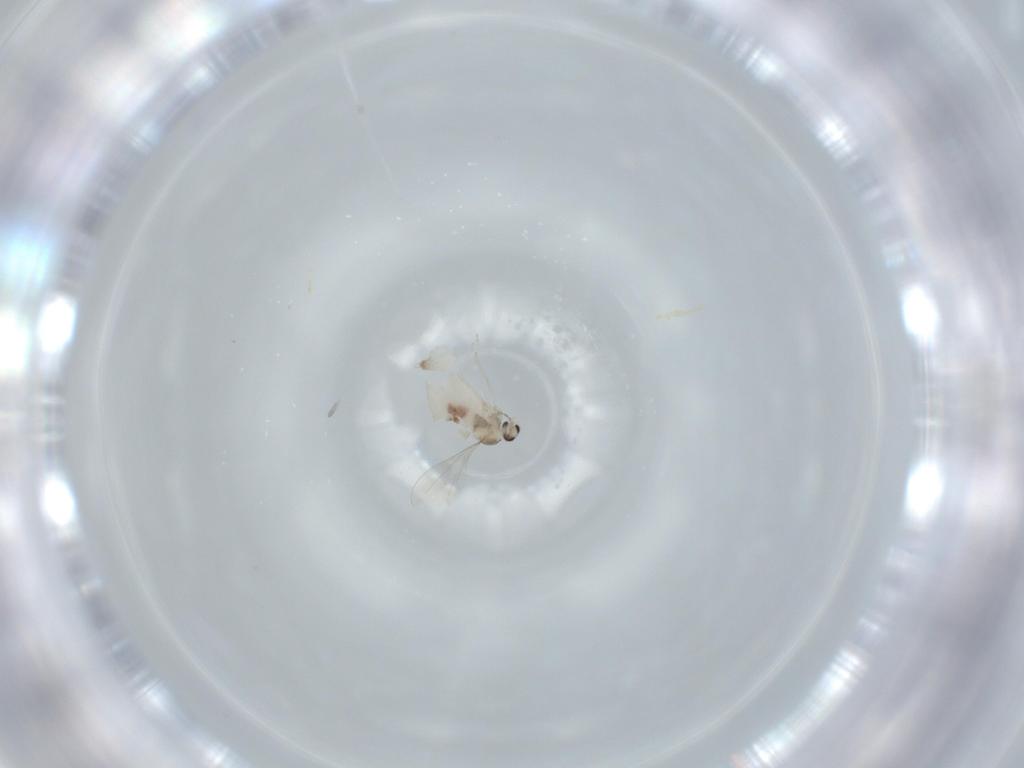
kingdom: Animalia
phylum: Arthropoda
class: Insecta
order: Diptera
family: Cecidomyiidae
